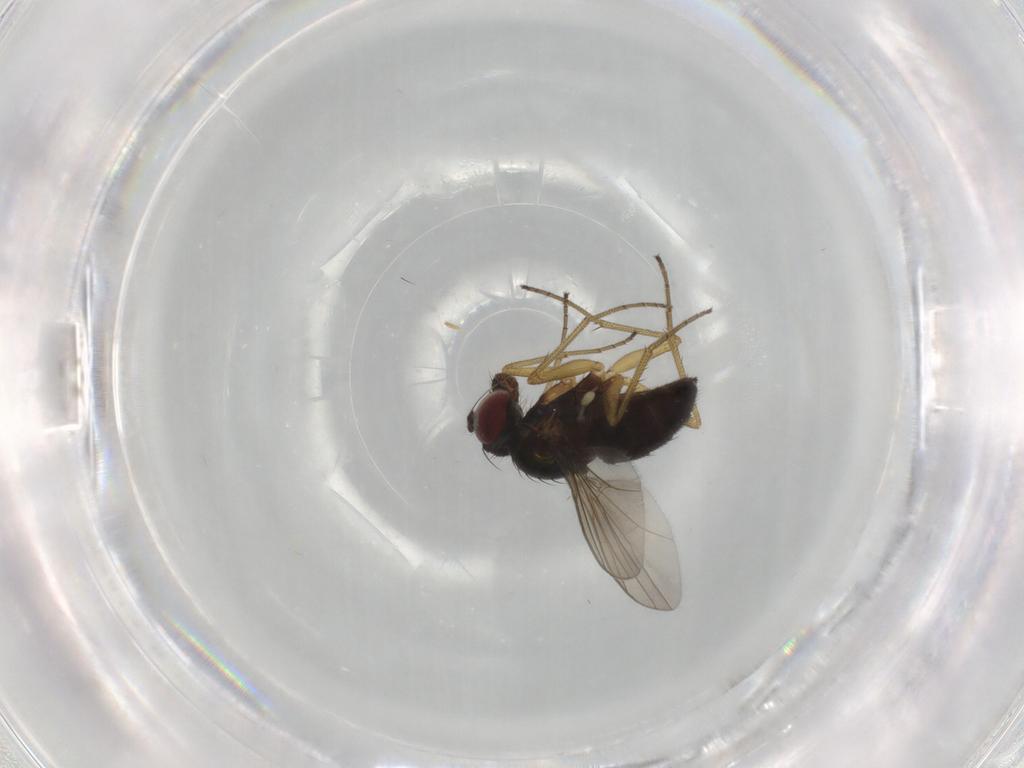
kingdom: Animalia
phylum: Arthropoda
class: Insecta
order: Diptera
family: Dolichopodidae
